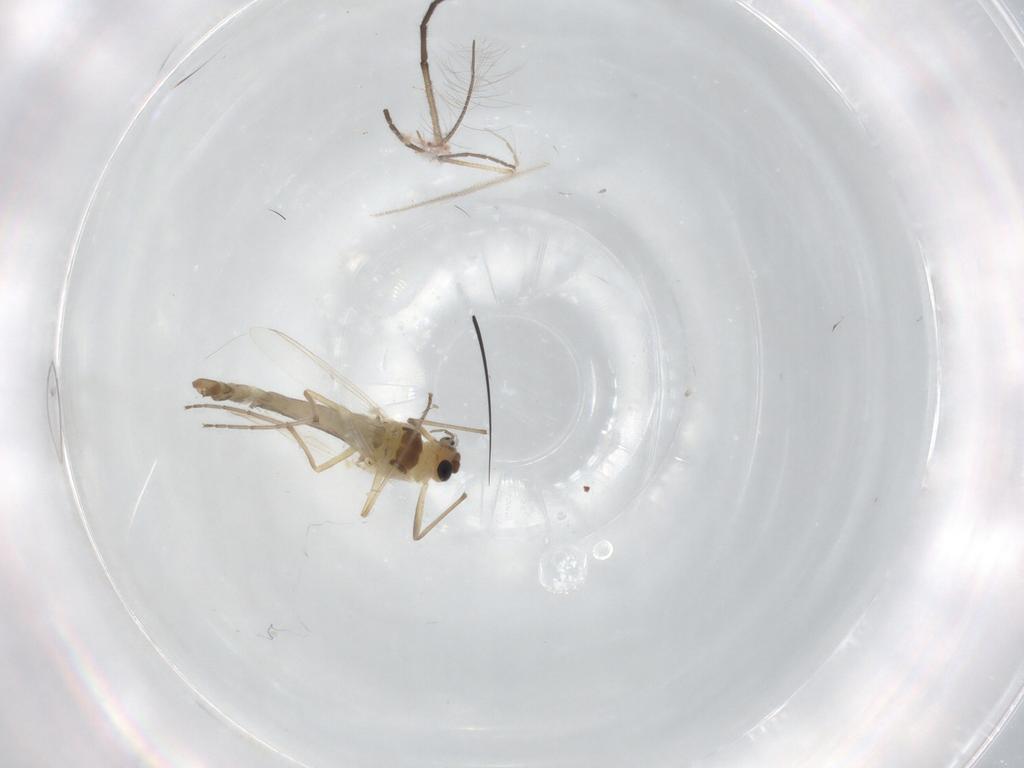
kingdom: Animalia
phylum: Arthropoda
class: Insecta
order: Diptera
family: Chironomidae
